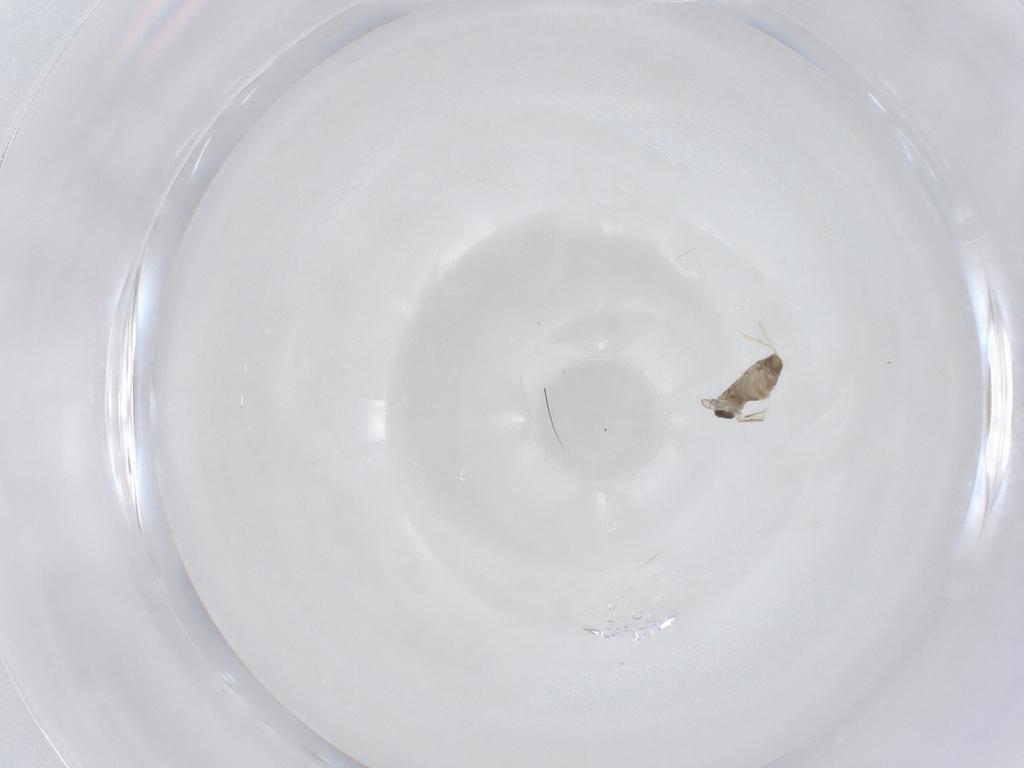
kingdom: Animalia
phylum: Arthropoda
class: Insecta
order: Diptera
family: Cecidomyiidae
